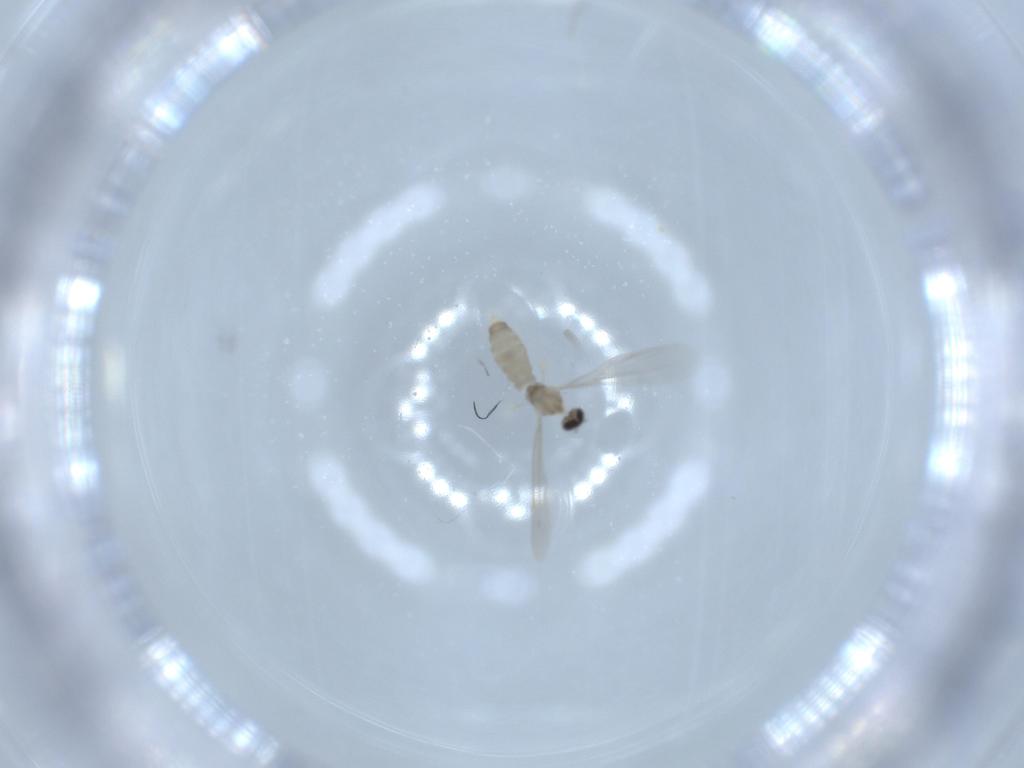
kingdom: Animalia
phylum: Arthropoda
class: Insecta
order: Diptera
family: Cecidomyiidae
